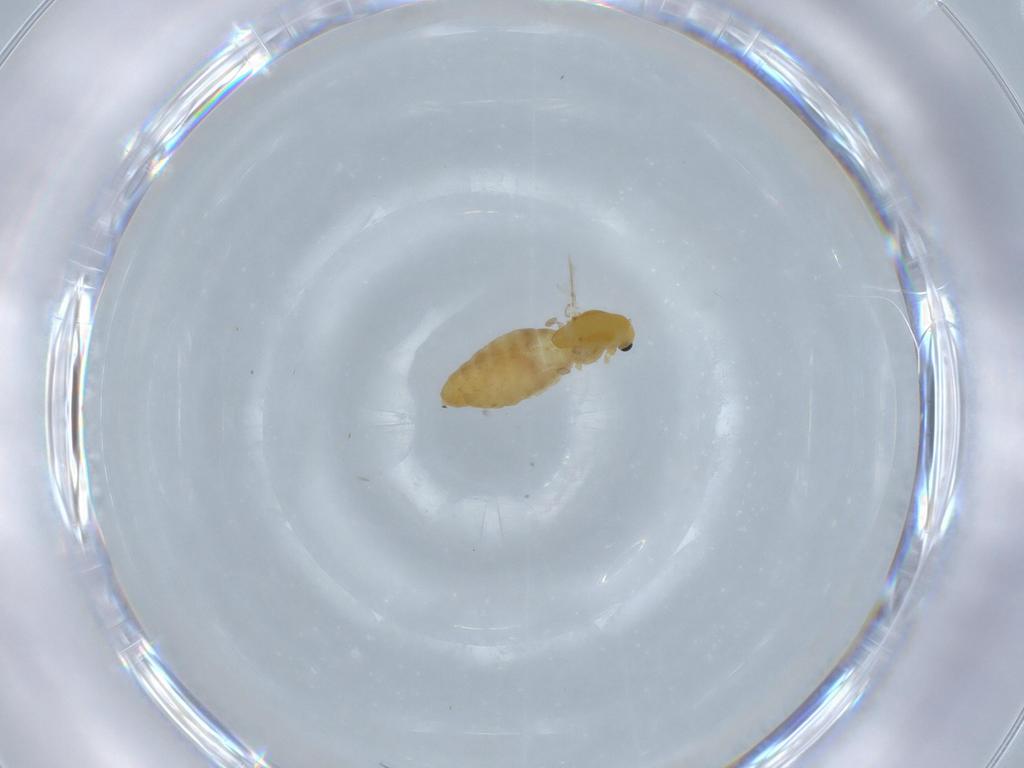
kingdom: Animalia
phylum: Arthropoda
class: Insecta
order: Diptera
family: Chironomidae
